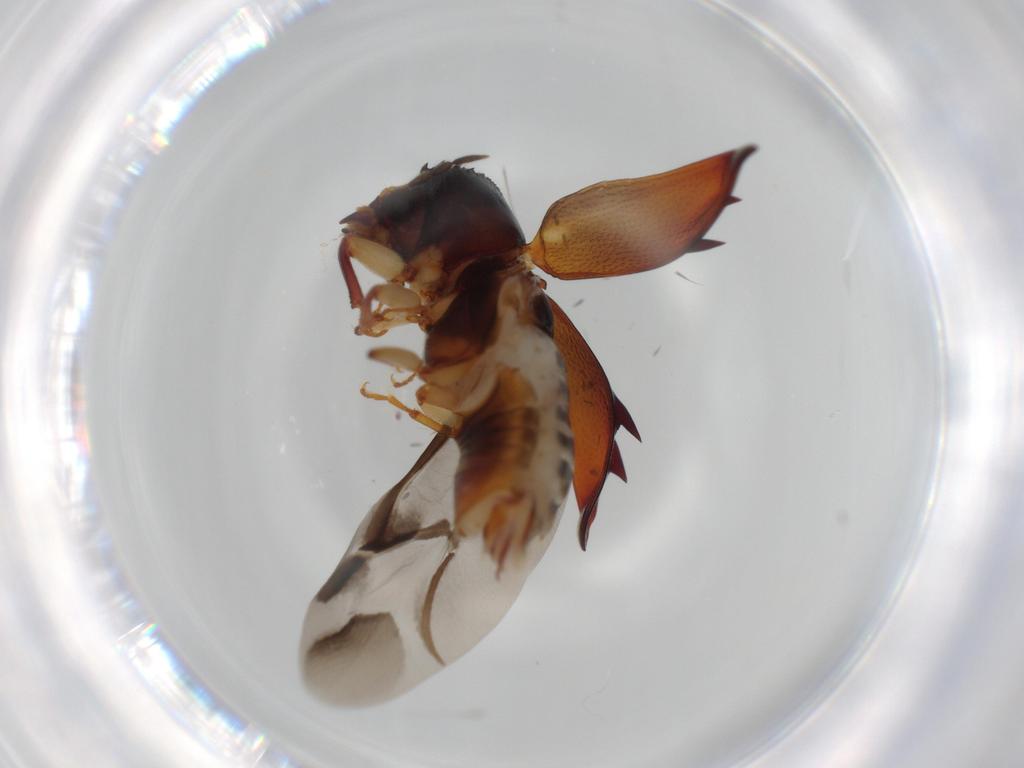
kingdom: Animalia
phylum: Arthropoda
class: Insecta
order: Coleoptera
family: Bostrichidae
